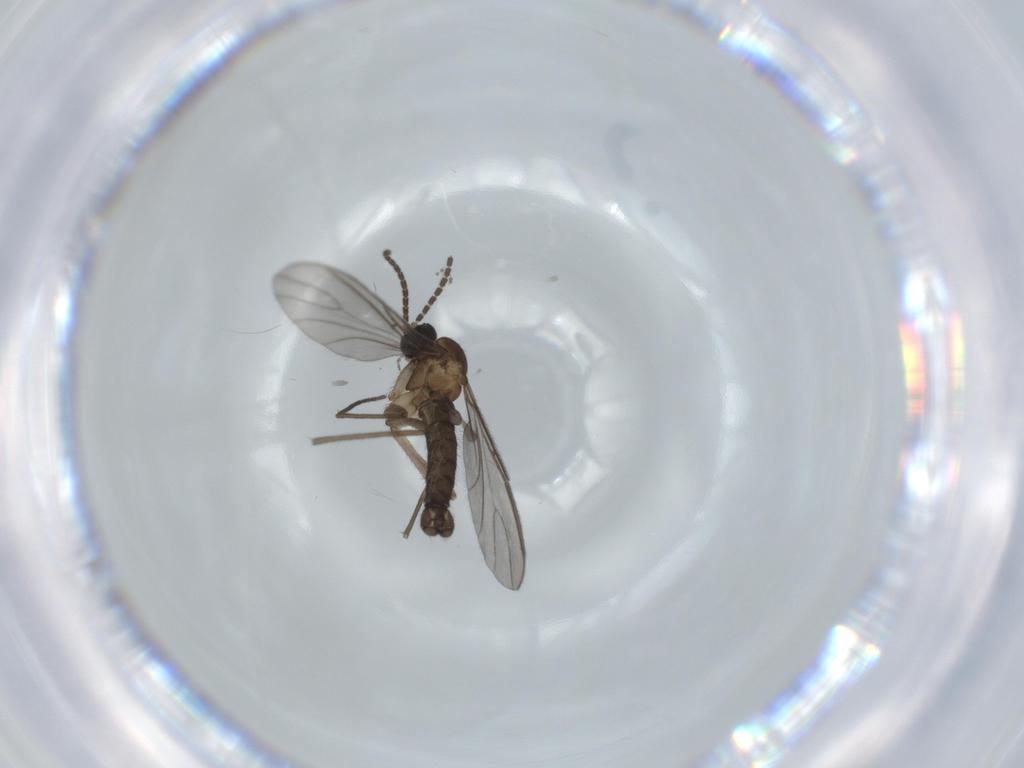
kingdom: Animalia
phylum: Arthropoda
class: Insecta
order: Diptera
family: Sciaridae
